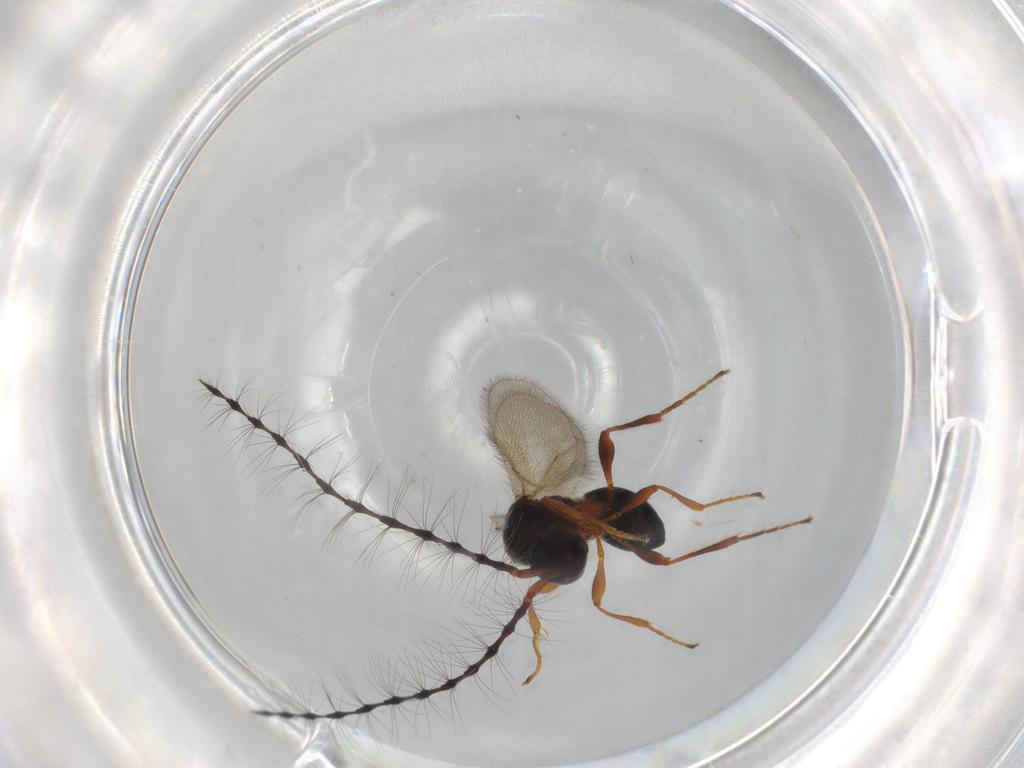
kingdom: Animalia
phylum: Arthropoda
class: Insecta
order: Hymenoptera
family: Diapriidae
